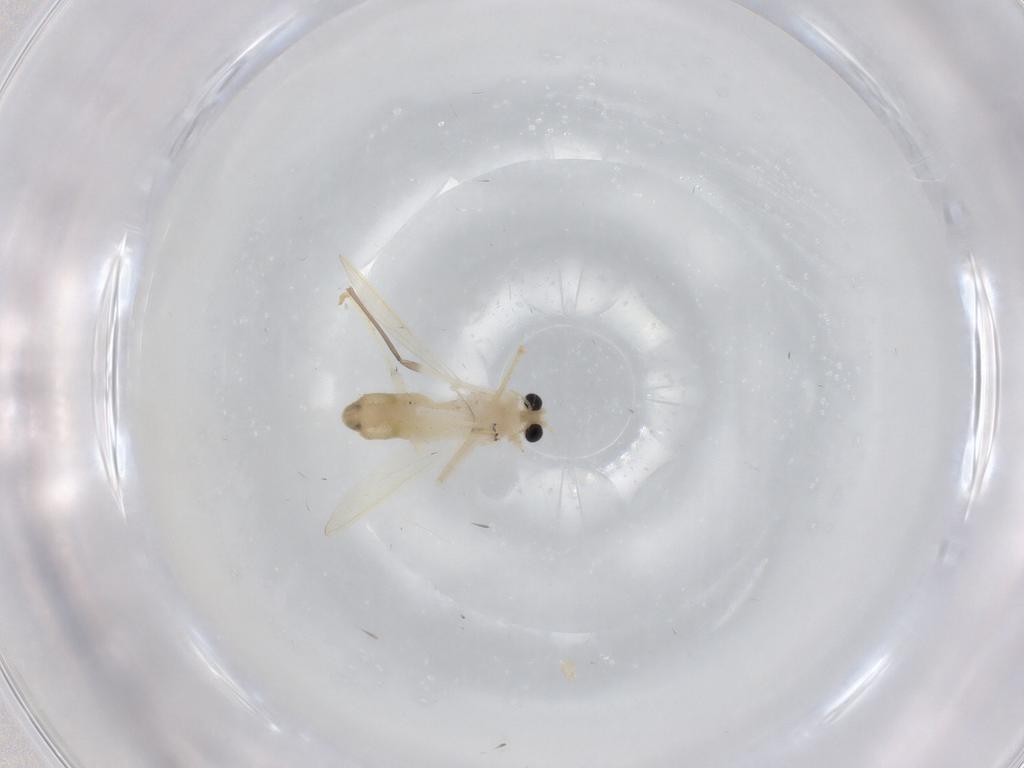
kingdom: Animalia
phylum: Arthropoda
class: Insecta
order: Diptera
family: Chironomidae
